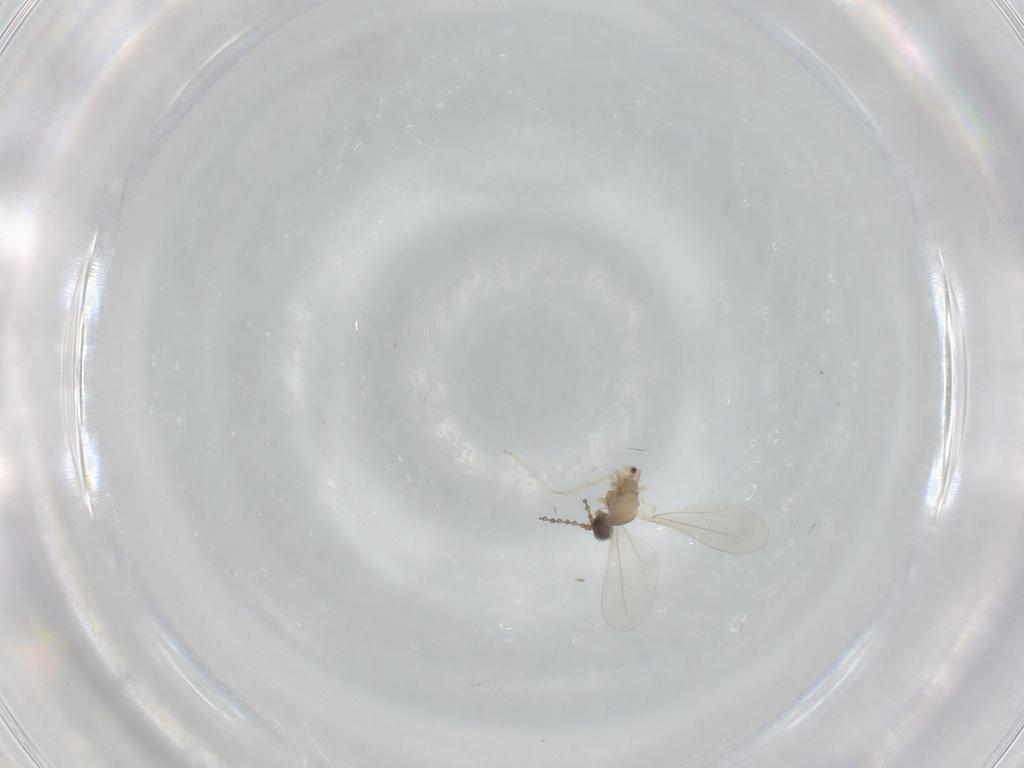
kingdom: Animalia
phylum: Arthropoda
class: Insecta
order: Diptera
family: Cecidomyiidae
